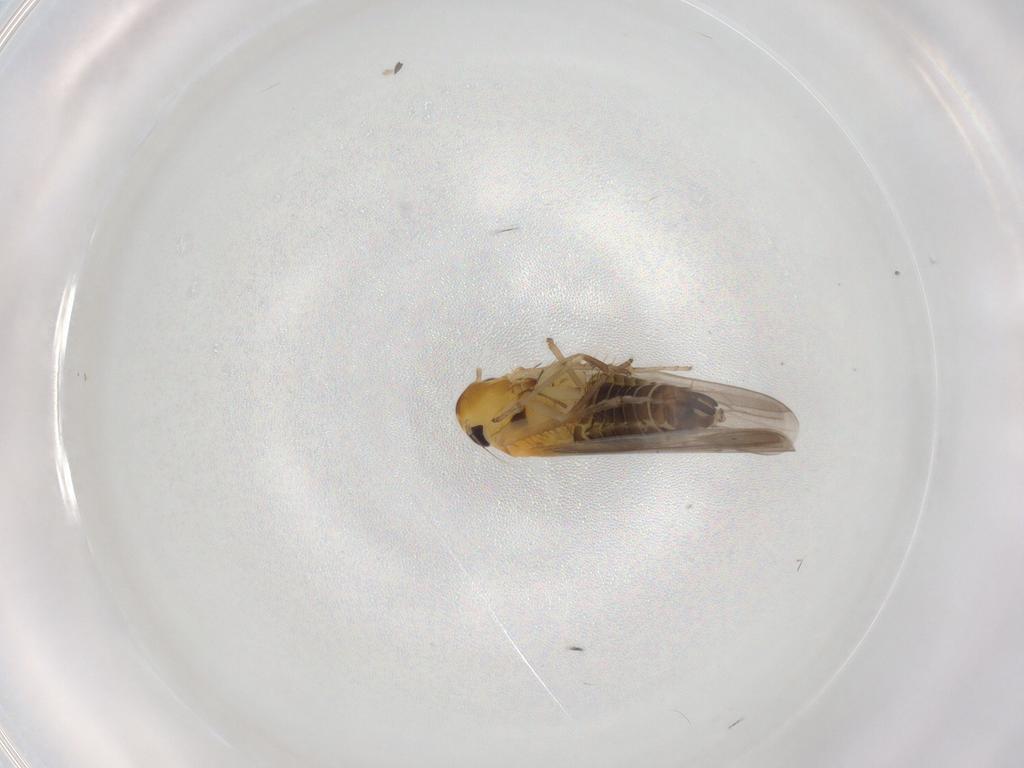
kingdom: Animalia
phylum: Arthropoda
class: Insecta
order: Hemiptera
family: Cicadellidae
